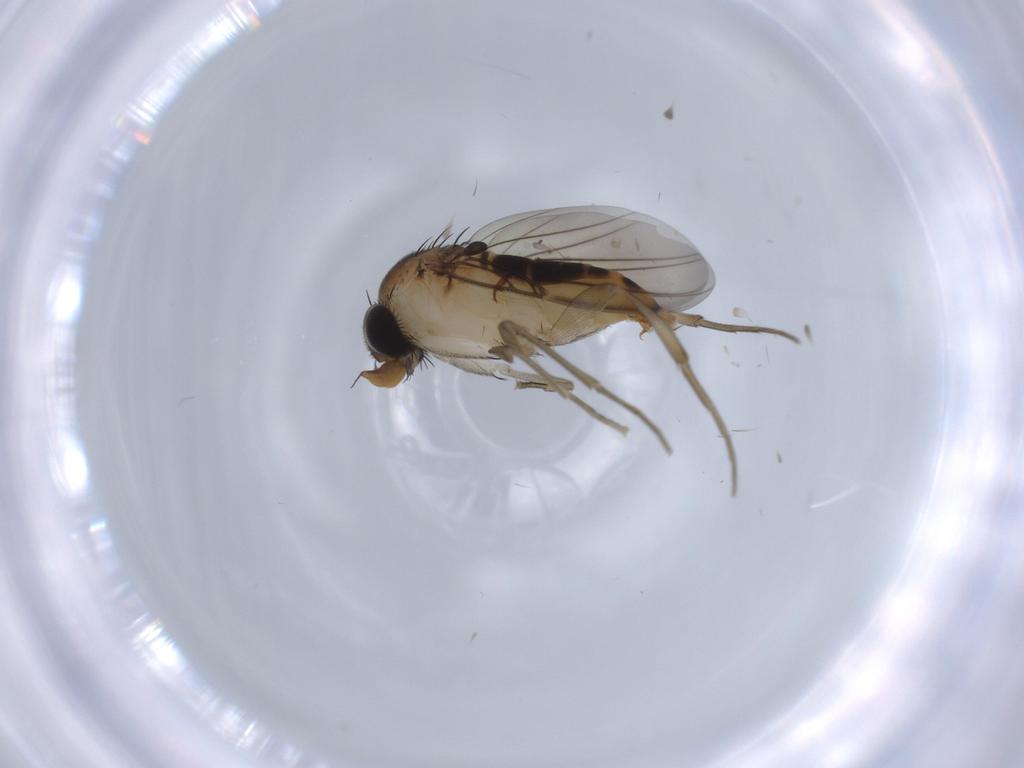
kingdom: Animalia
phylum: Arthropoda
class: Insecta
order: Diptera
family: Phoridae
